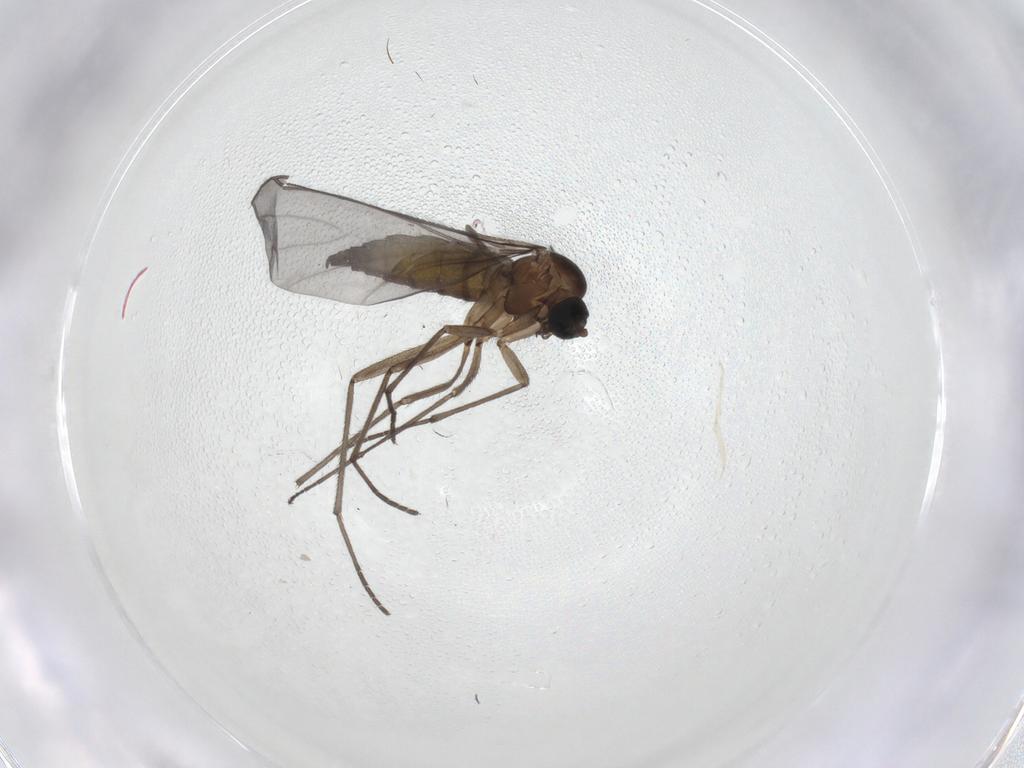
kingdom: Animalia
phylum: Arthropoda
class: Insecta
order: Diptera
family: Sciaridae
